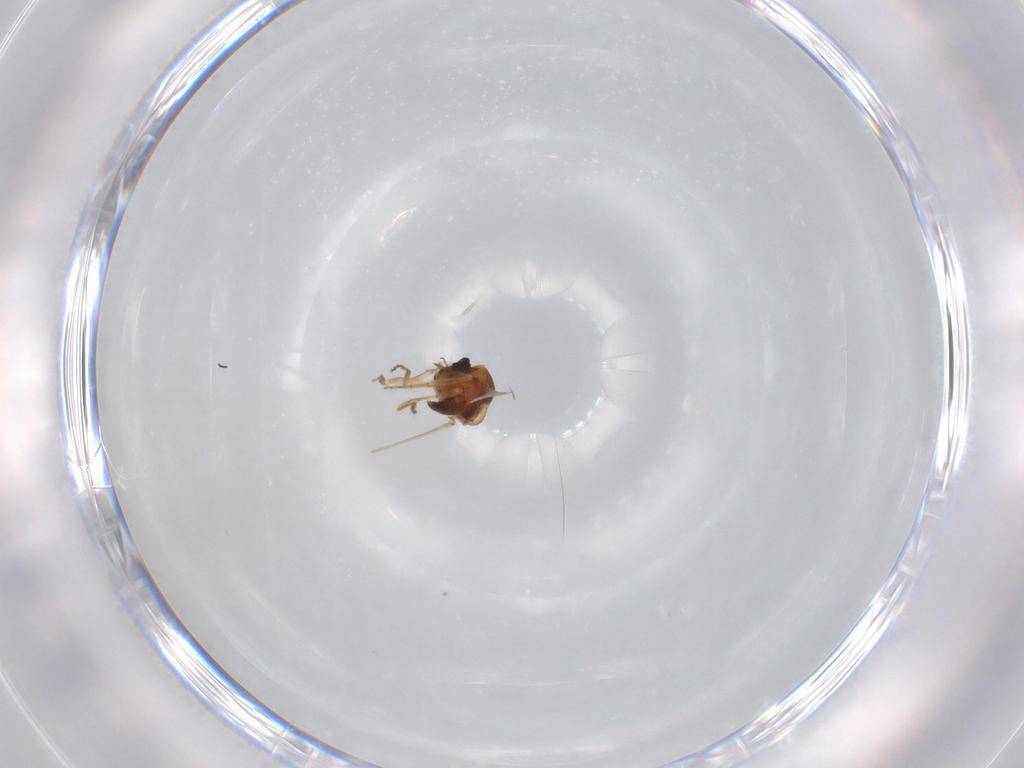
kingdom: Animalia
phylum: Arthropoda
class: Insecta
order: Diptera
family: Ceratopogonidae
